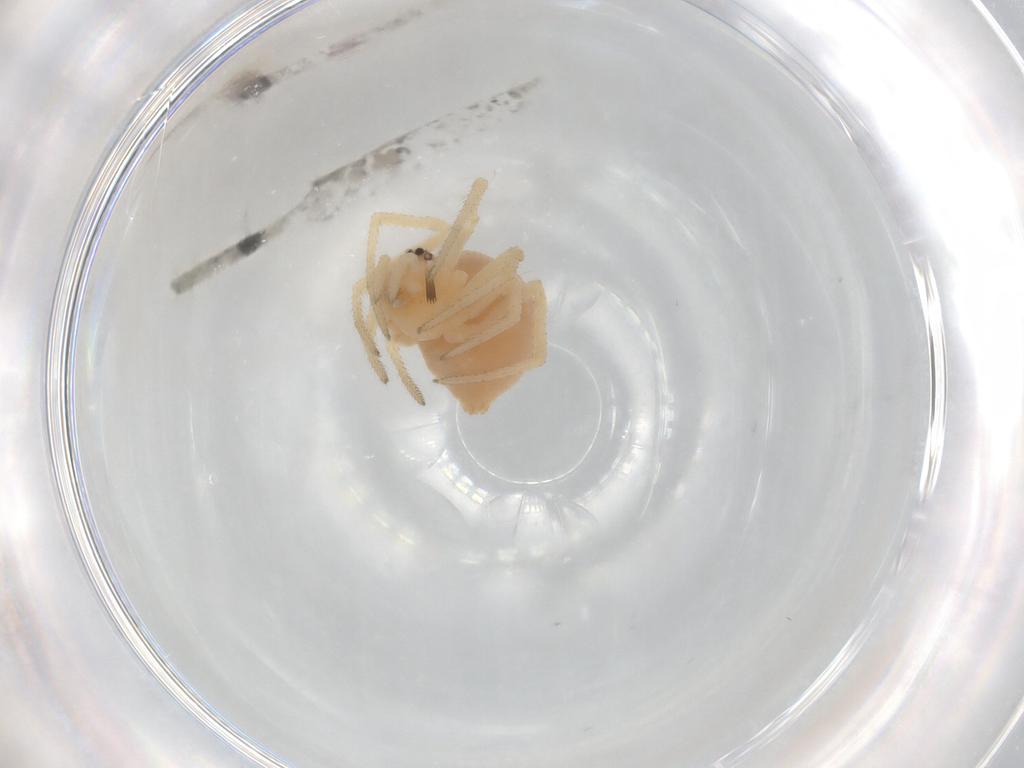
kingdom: Animalia
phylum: Arthropoda
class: Arachnida
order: Araneae
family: Theridiidae
